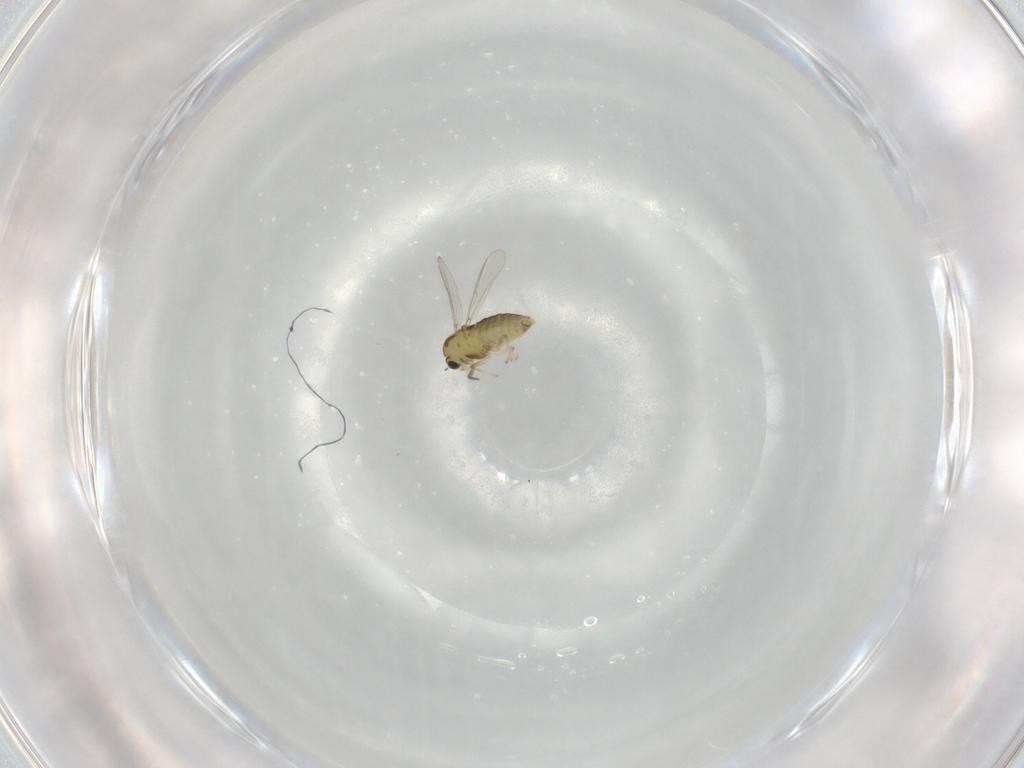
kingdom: Animalia
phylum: Arthropoda
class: Insecta
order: Diptera
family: Chironomidae
